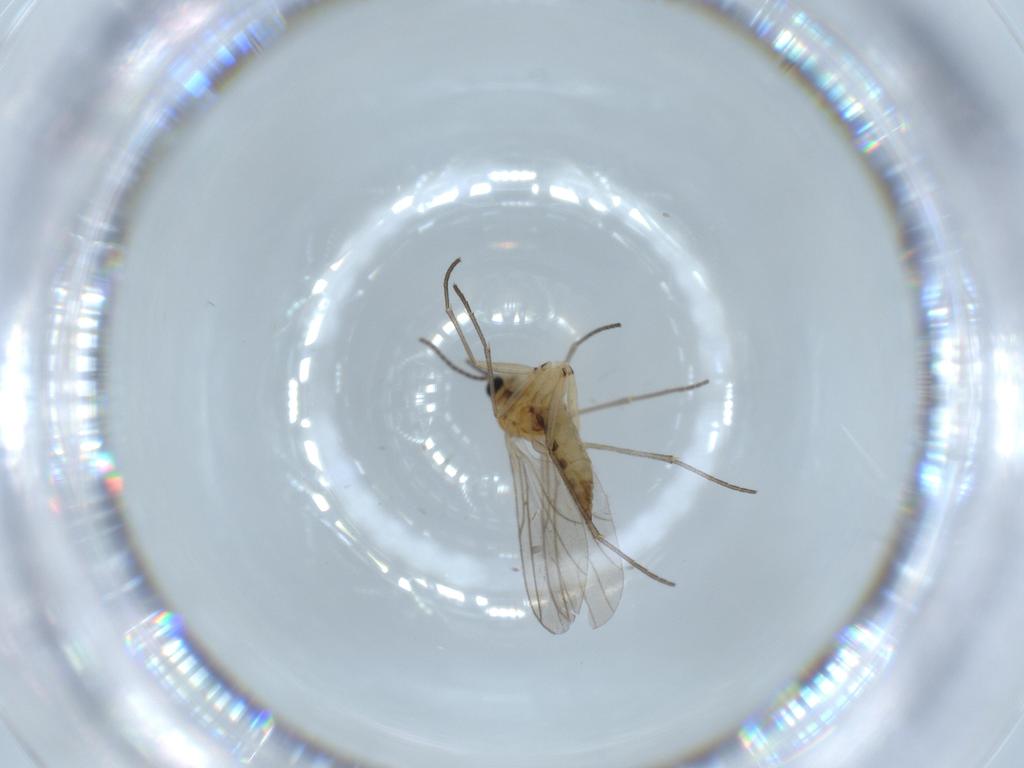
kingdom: Animalia
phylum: Arthropoda
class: Insecta
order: Diptera
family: Sciaridae
